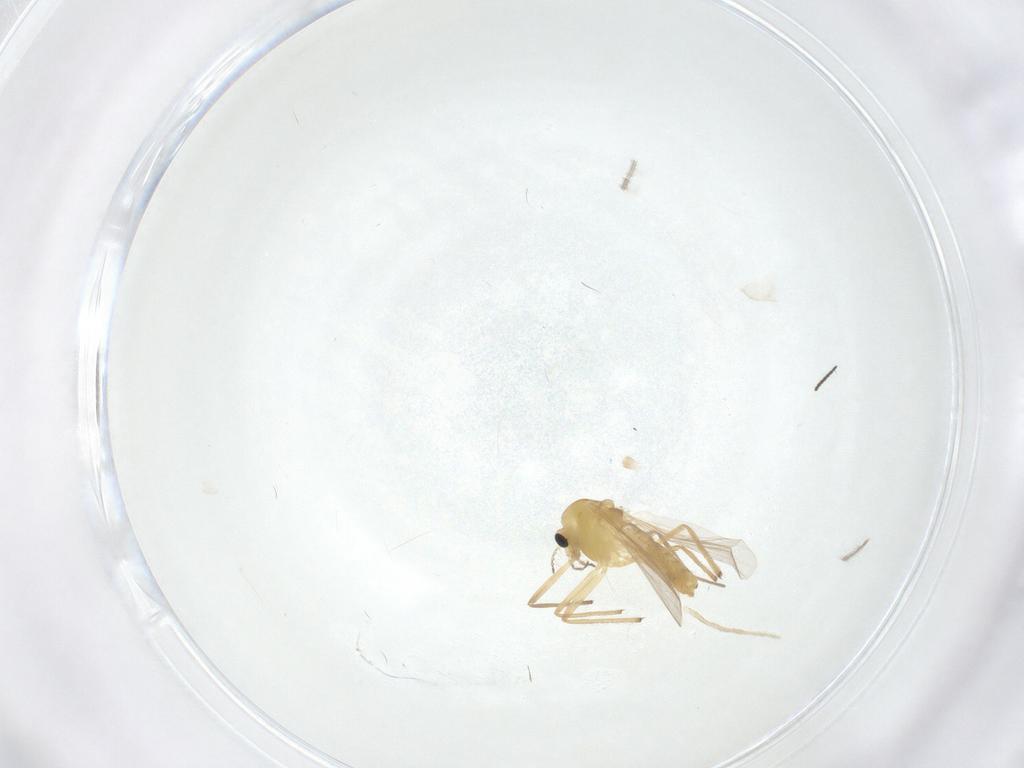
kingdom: Animalia
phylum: Arthropoda
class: Insecta
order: Diptera
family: Chironomidae
